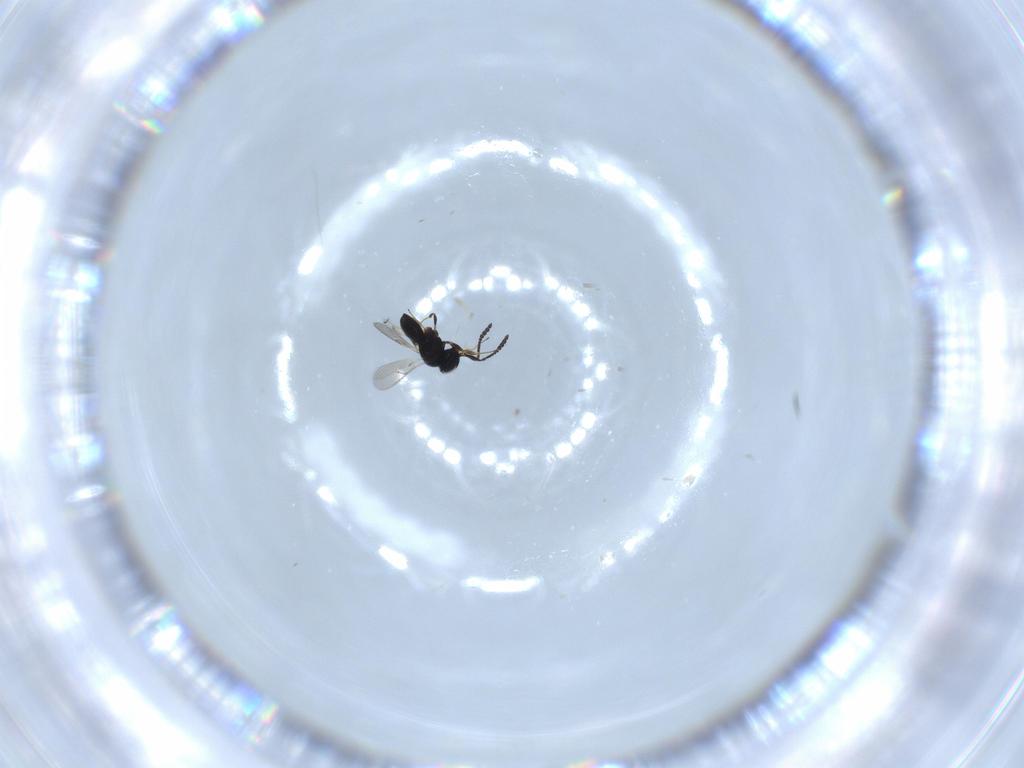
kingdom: Animalia
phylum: Arthropoda
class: Insecta
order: Hymenoptera
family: Scelionidae
